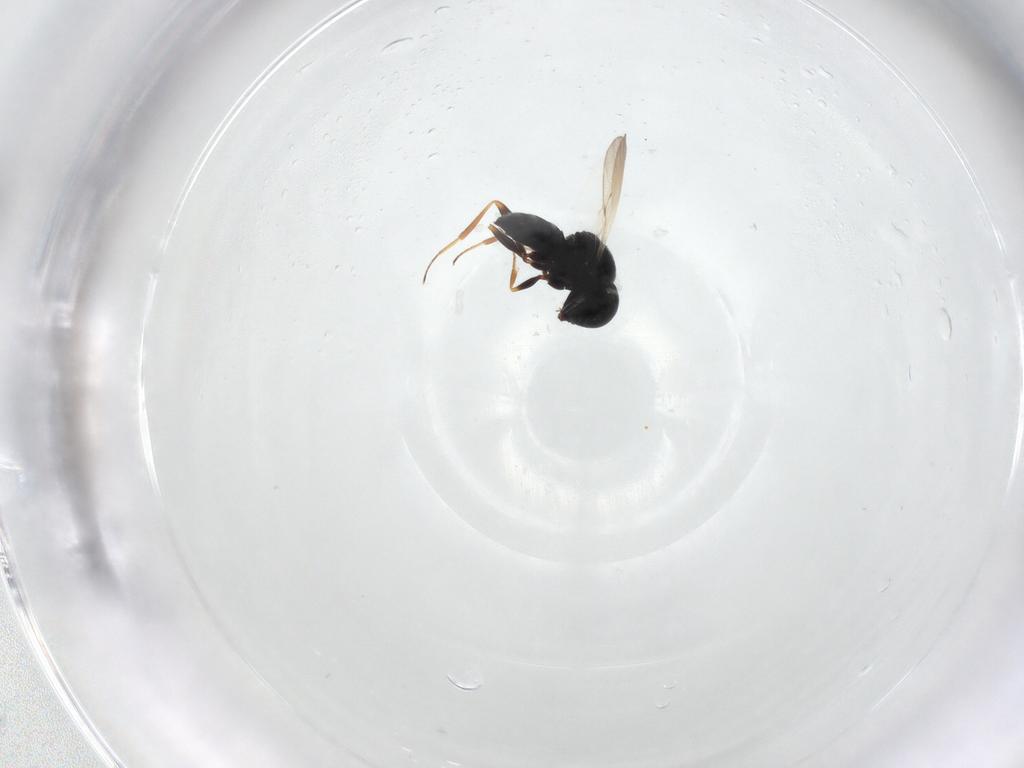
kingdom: Animalia
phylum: Arthropoda
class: Insecta
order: Hymenoptera
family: Scelionidae
